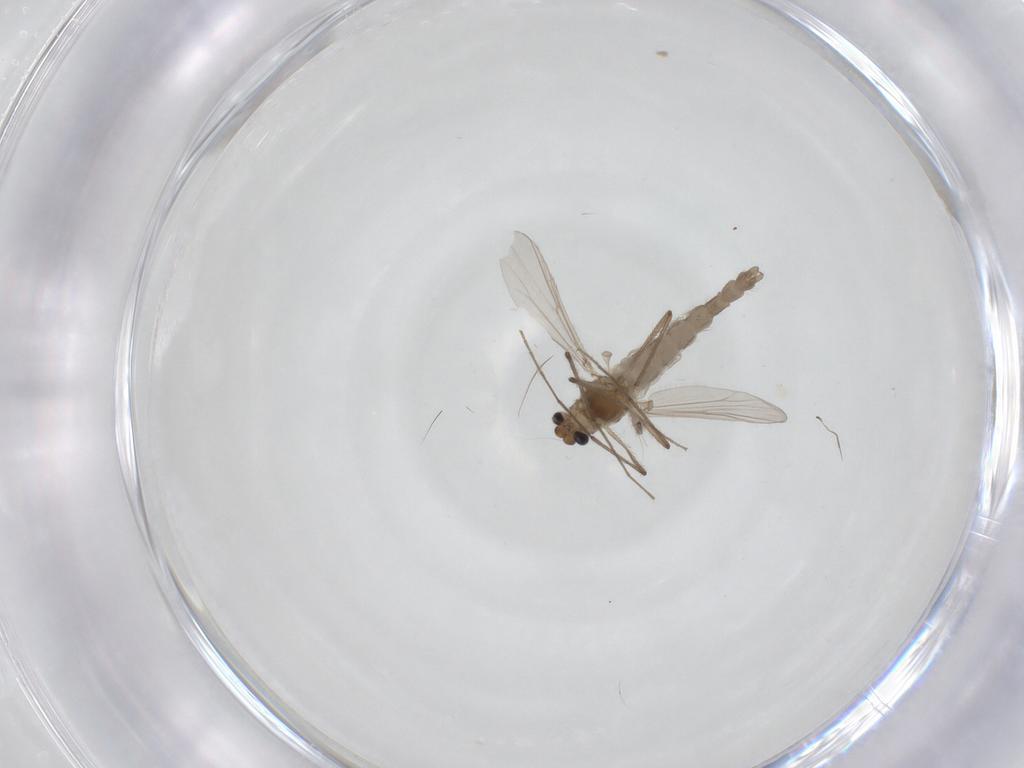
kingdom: Animalia
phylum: Arthropoda
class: Insecta
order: Diptera
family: Chironomidae
